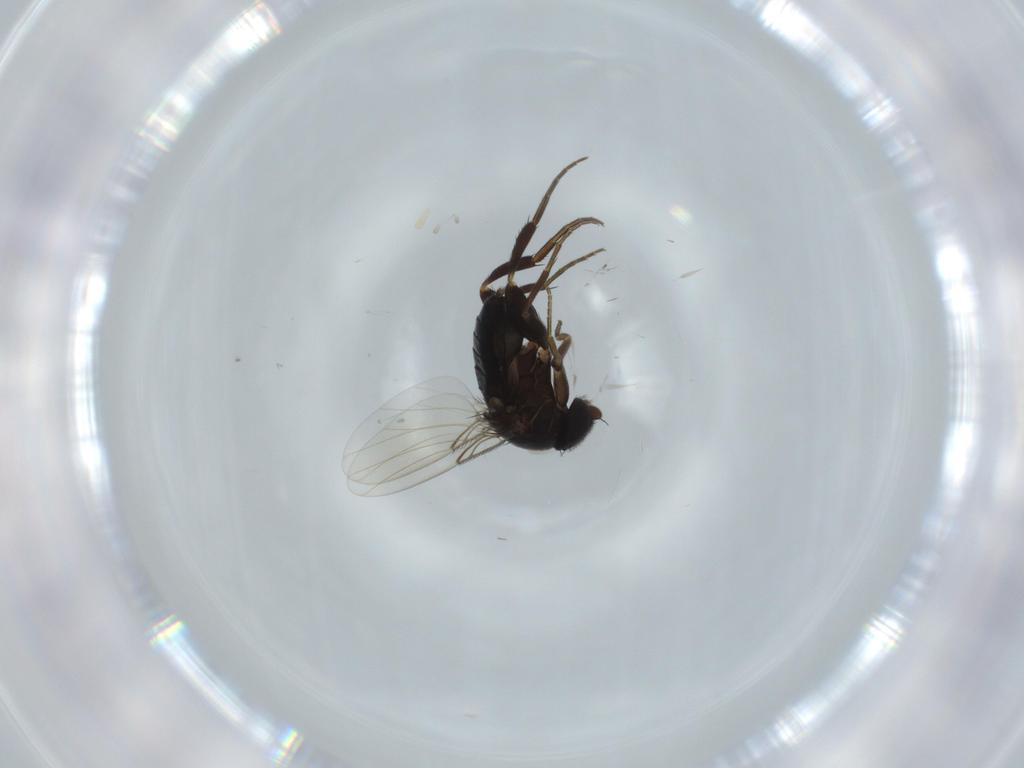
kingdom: Animalia
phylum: Arthropoda
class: Insecta
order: Diptera
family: Phoridae
